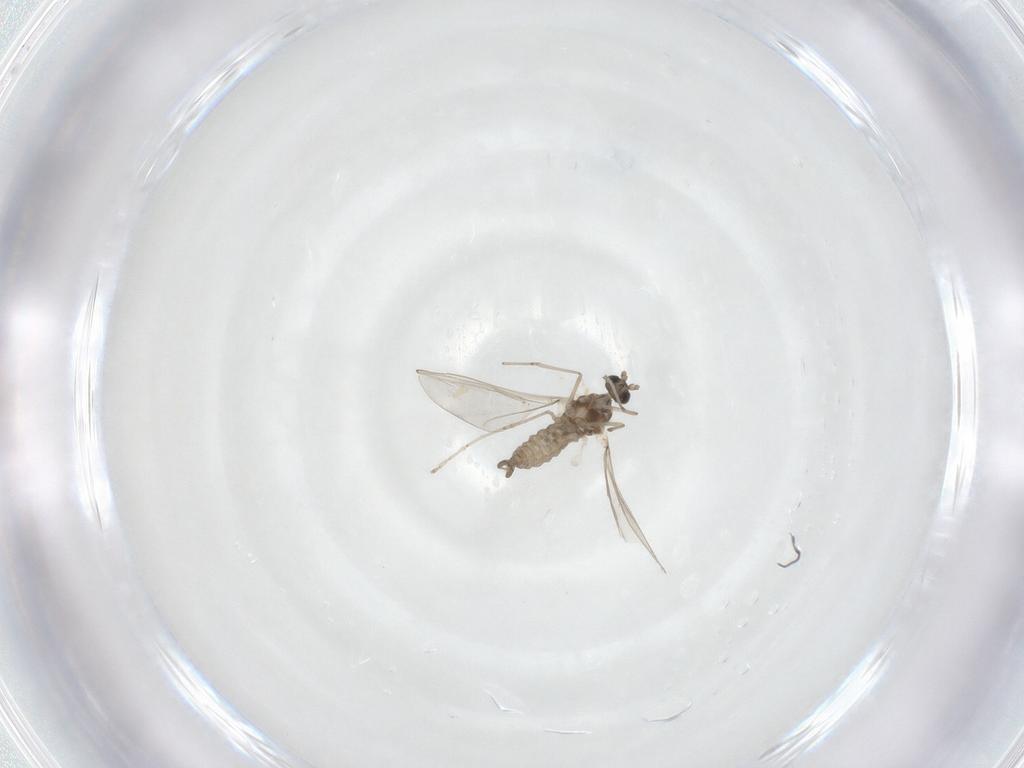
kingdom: Animalia
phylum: Arthropoda
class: Insecta
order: Diptera
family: Cecidomyiidae
